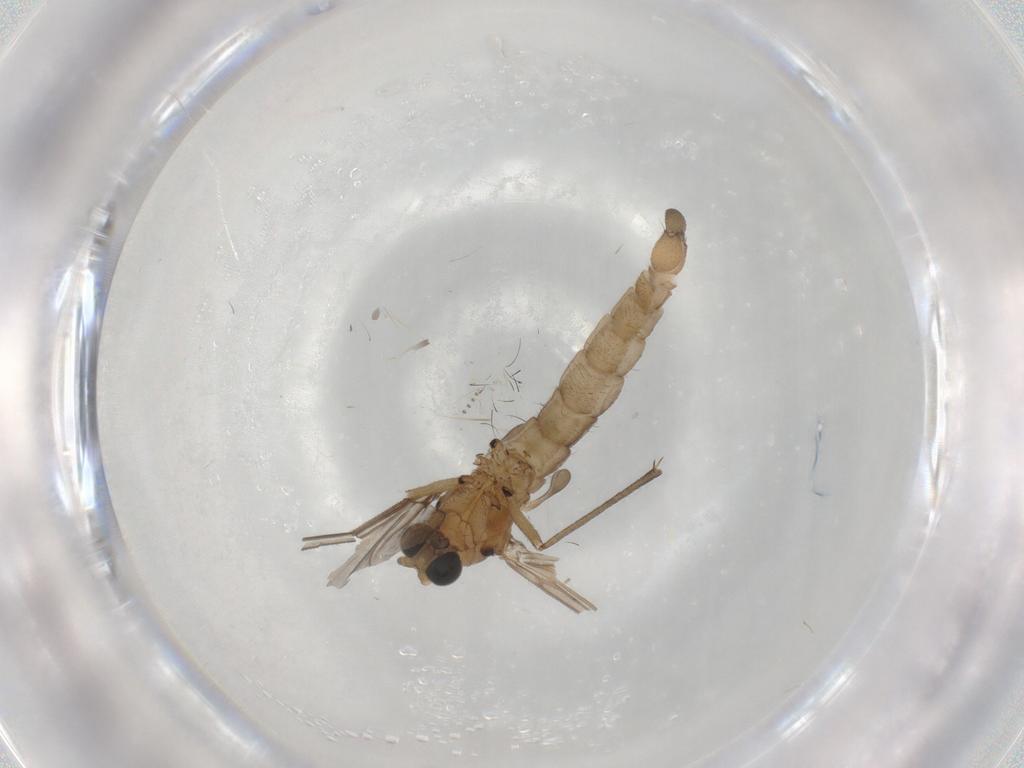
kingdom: Animalia
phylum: Arthropoda
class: Insecta
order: Diptera
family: Sciaridae
